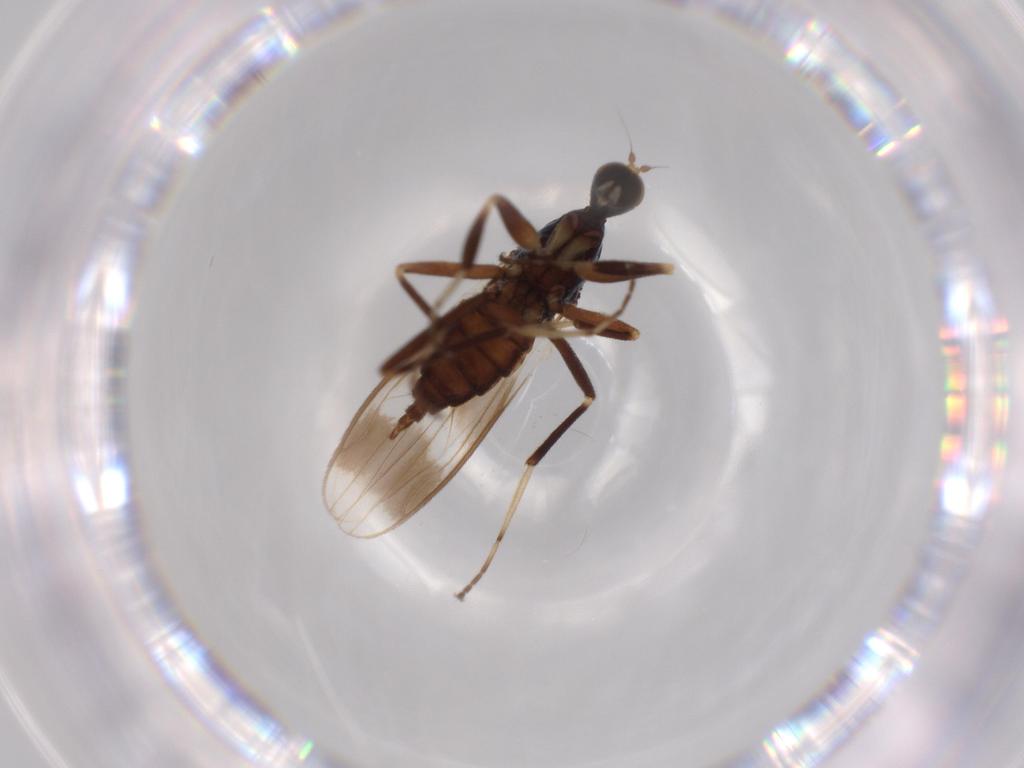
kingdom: Animalia
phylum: Arthropoda
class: Insecta
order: Diptera
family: Hybotidae
